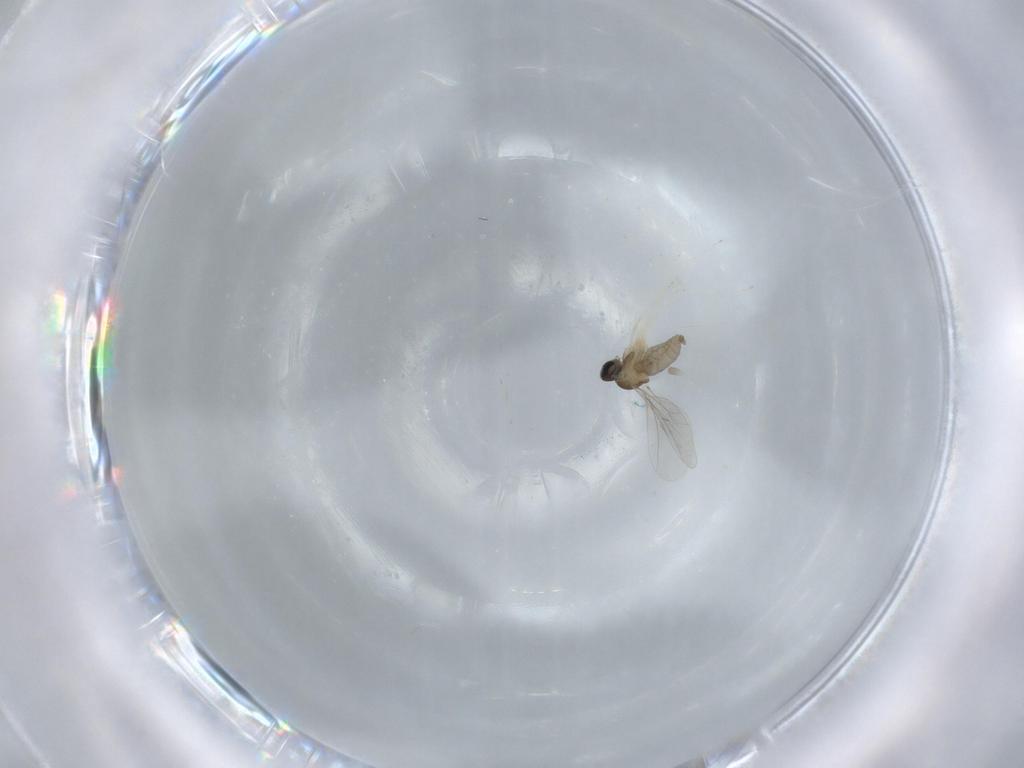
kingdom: Animalia
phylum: Arthropoda
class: Insecta
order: Diptera
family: Cecidomyiidae
